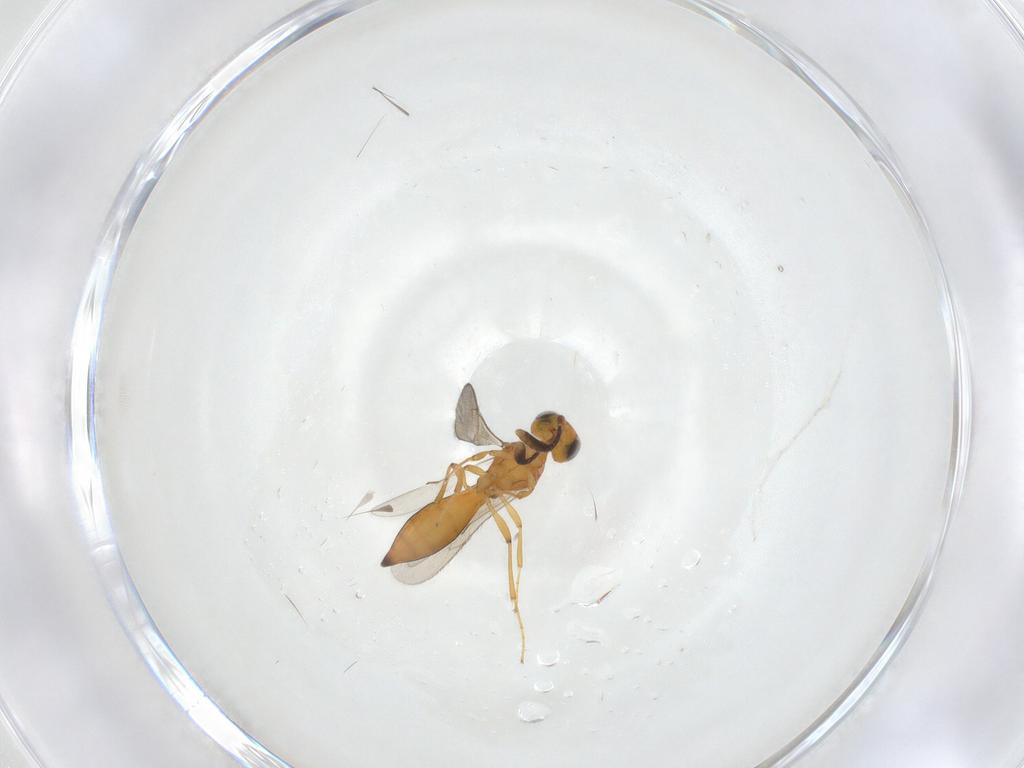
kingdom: Animalia
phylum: Arthropoda
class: Insecta
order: Hymenoptera
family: Scelionidae
